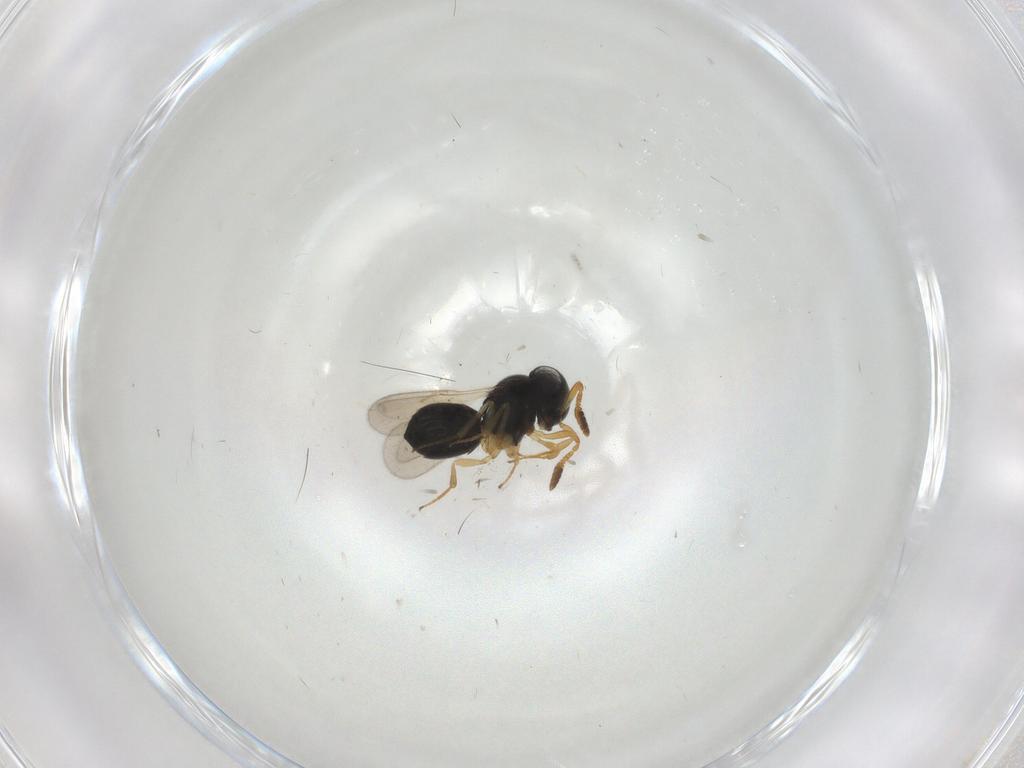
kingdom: Animalia
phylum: Arthropoda
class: Insecta
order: Hymenoptera
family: Scelionidae
